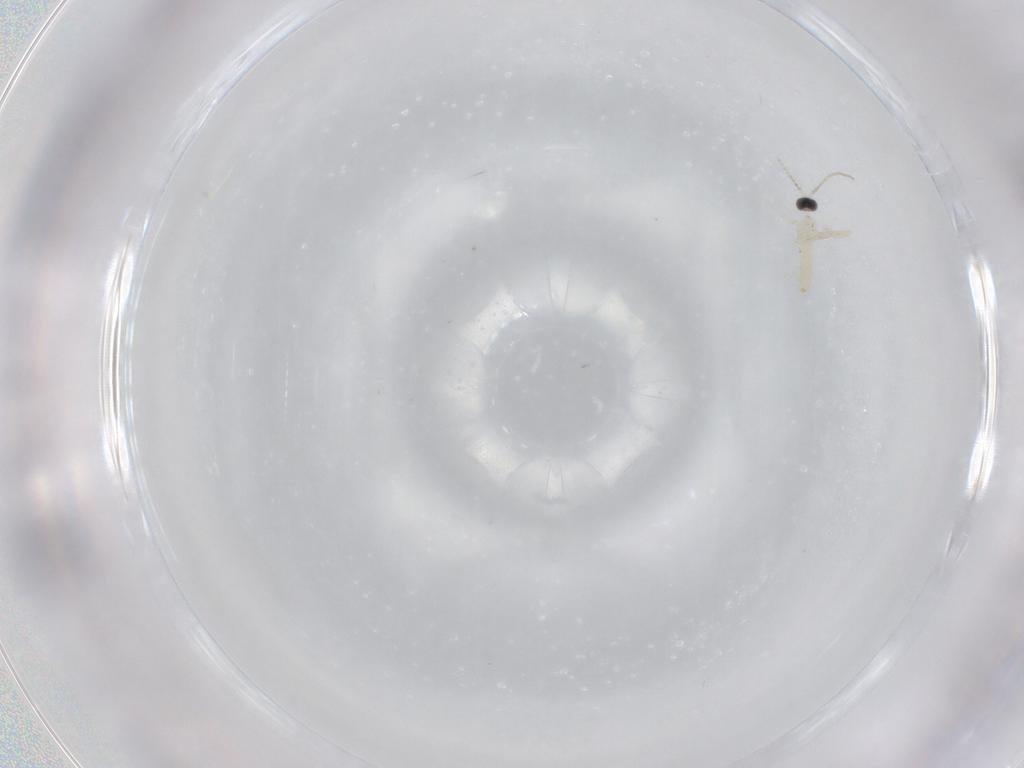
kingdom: Animalia
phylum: Arthropoda
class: Insecta
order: Diptera
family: Cecidomyiidae
